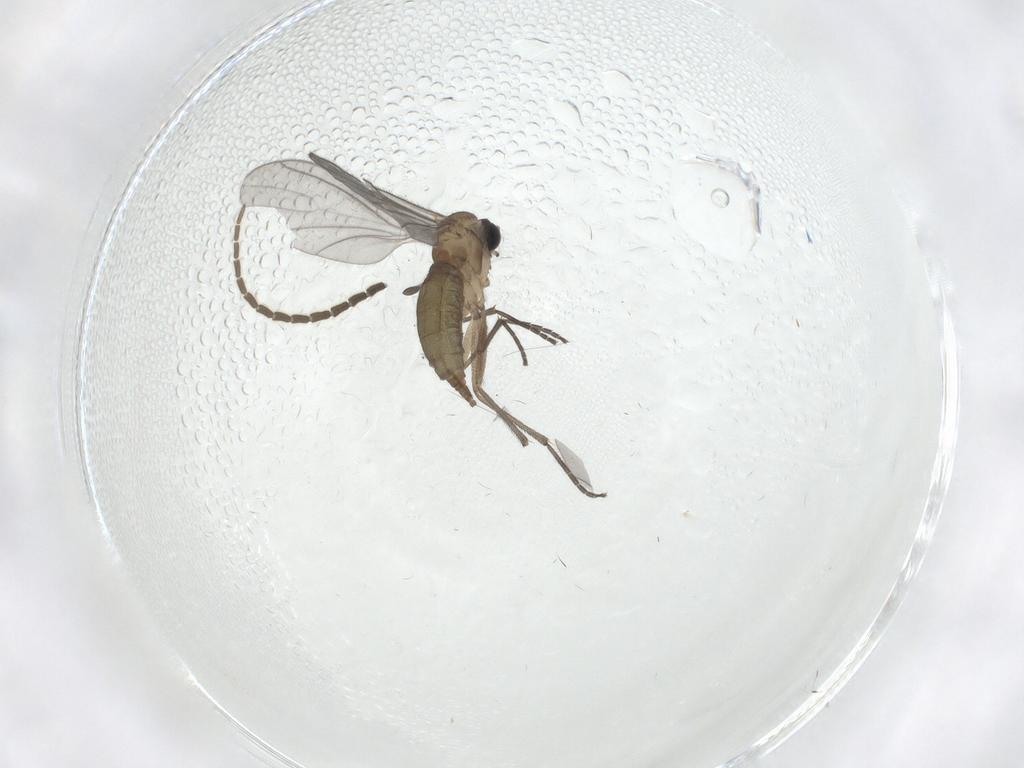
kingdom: Animalia
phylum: Arthropoda
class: Insecta
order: Diptera
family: Sciaridae
